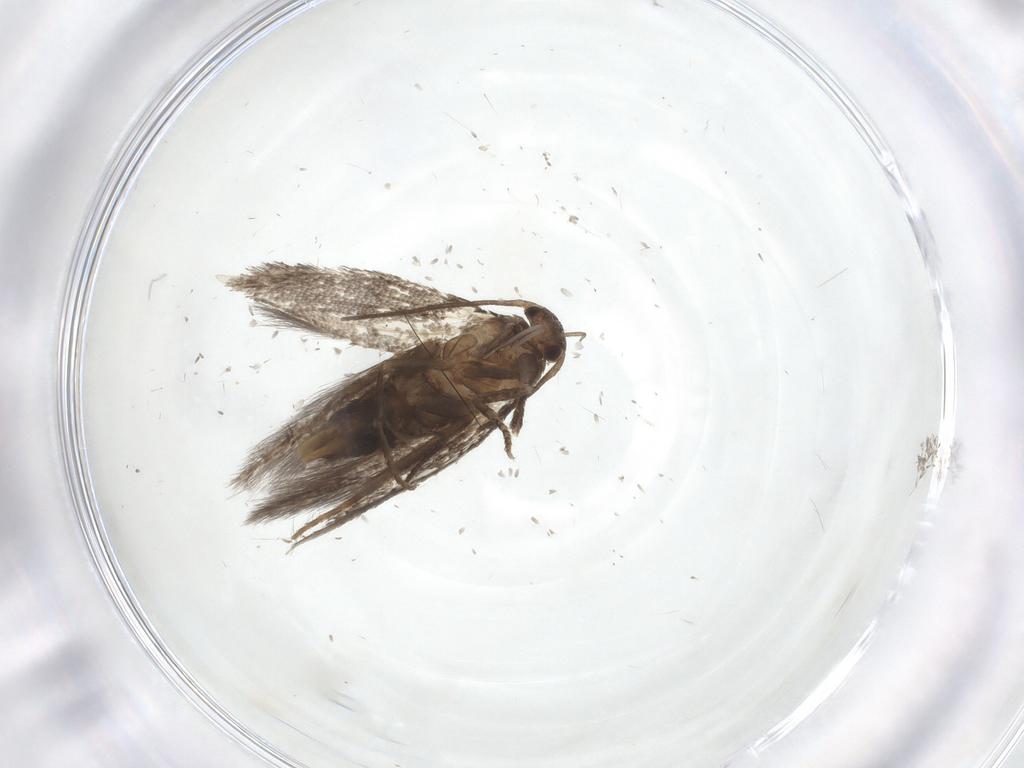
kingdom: Animalia
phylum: Arthropoda
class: Insecta
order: Lepidoptera
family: Elachistidae
